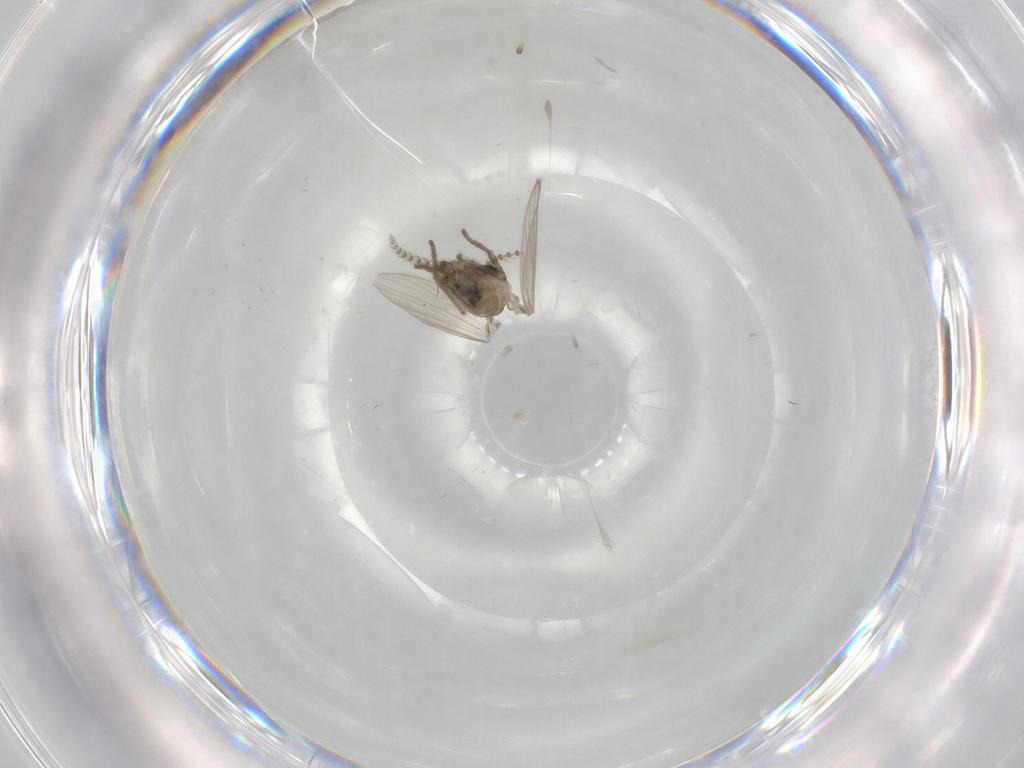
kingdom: Animalia
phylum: Arthropoda
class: Insecta
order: Diptera
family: Psychodidae
